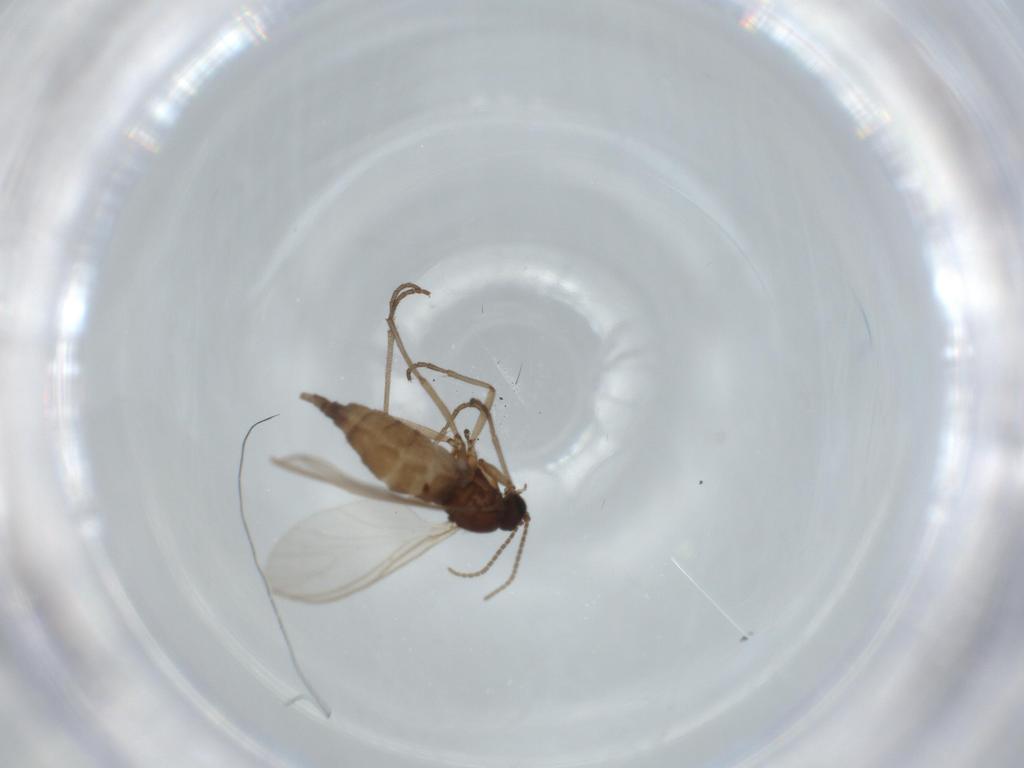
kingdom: Animalia
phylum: Arthropoda
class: Insecta
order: Diptera
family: Sciaridae
